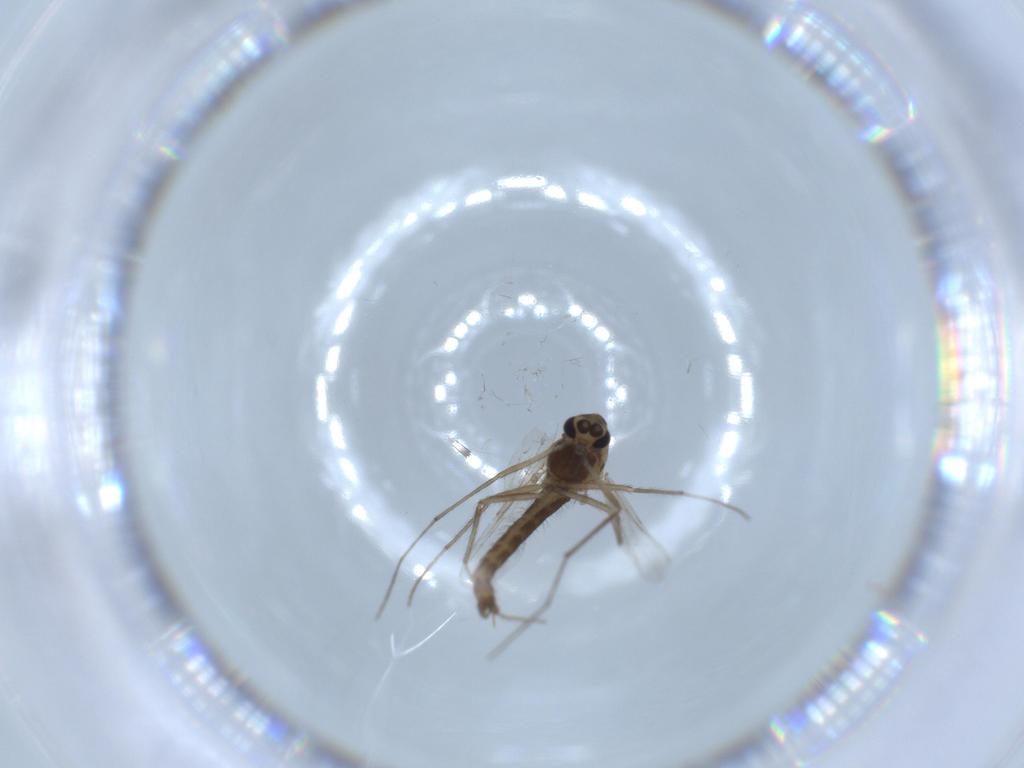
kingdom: Animalia
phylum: Arthropoda
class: Insecta
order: Diptera
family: Chironomidae
